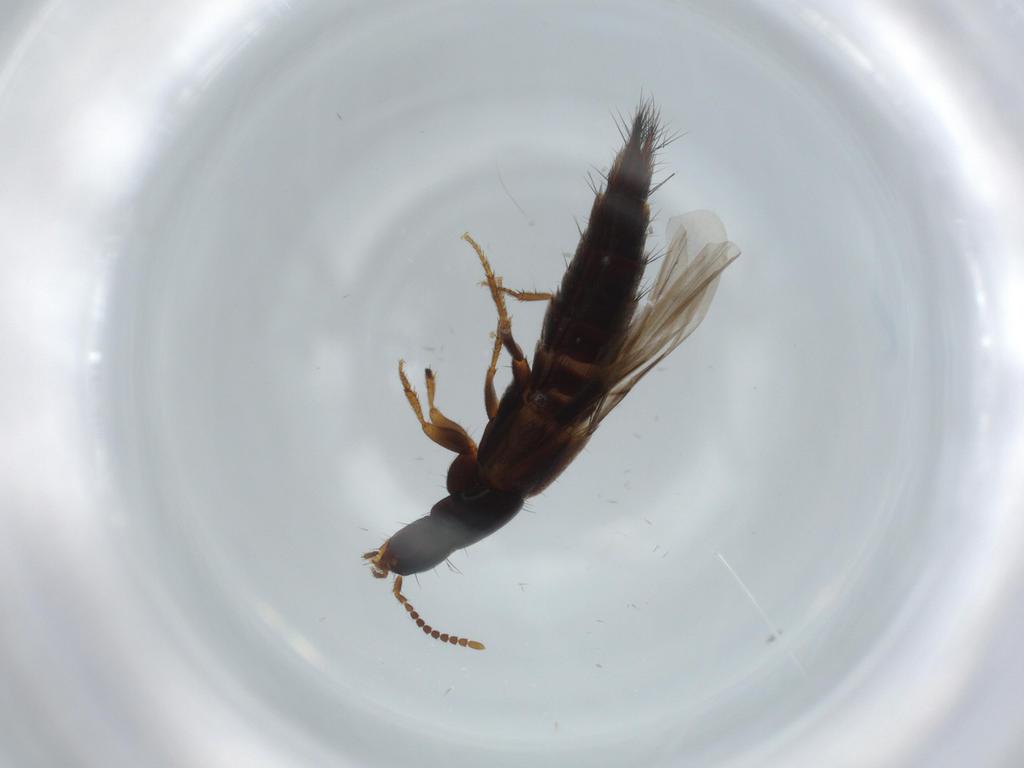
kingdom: Animalia
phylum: Arthropoda
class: Insecta
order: Coleoptera
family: Staphylinidae
